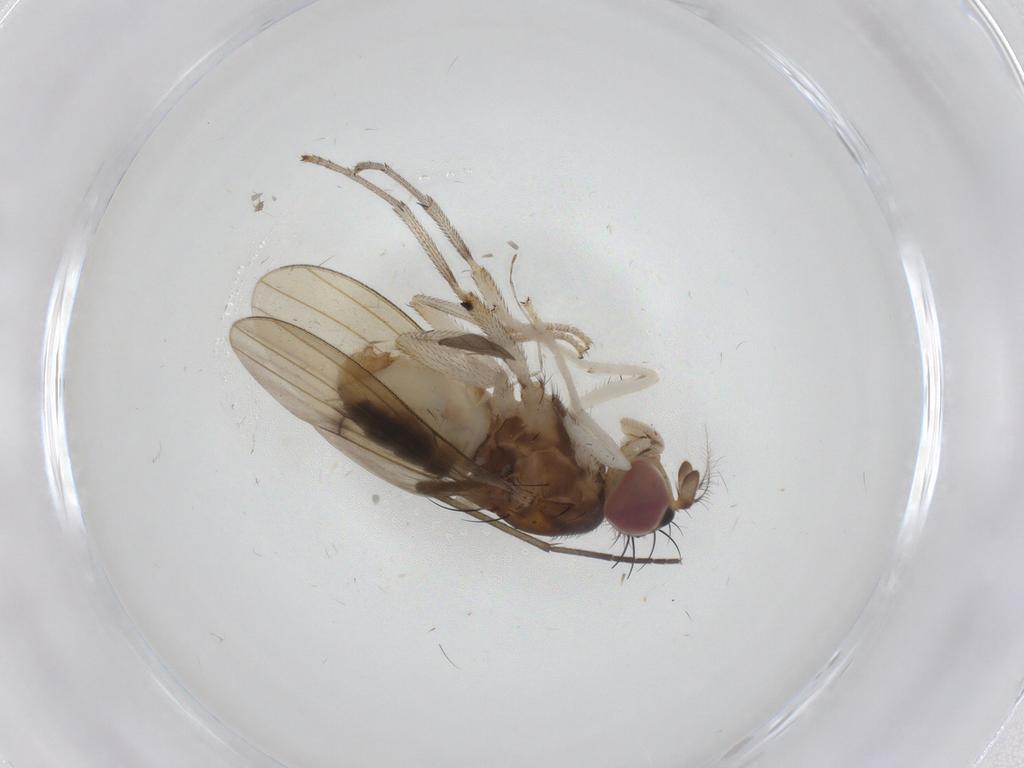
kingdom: Animalia
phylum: Arthropoda
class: Insecta
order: Diptera
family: Lauxaniidae
